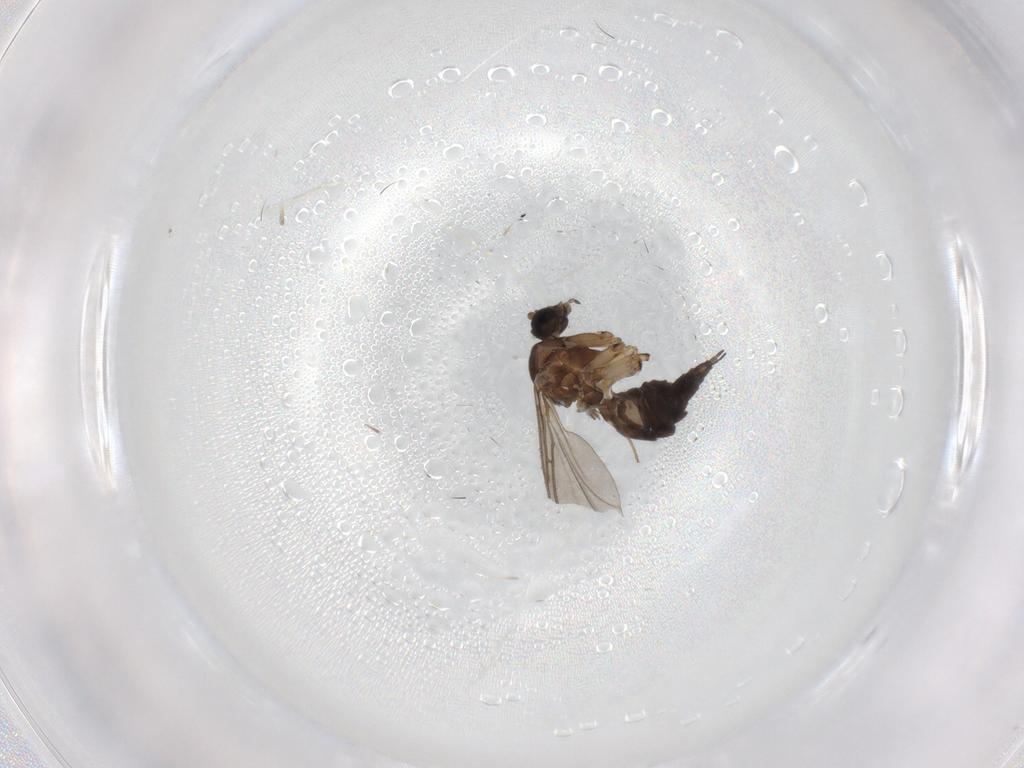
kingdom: Animalia
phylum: Arthropoda
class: Insecta
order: Diptera
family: Sciaridae
